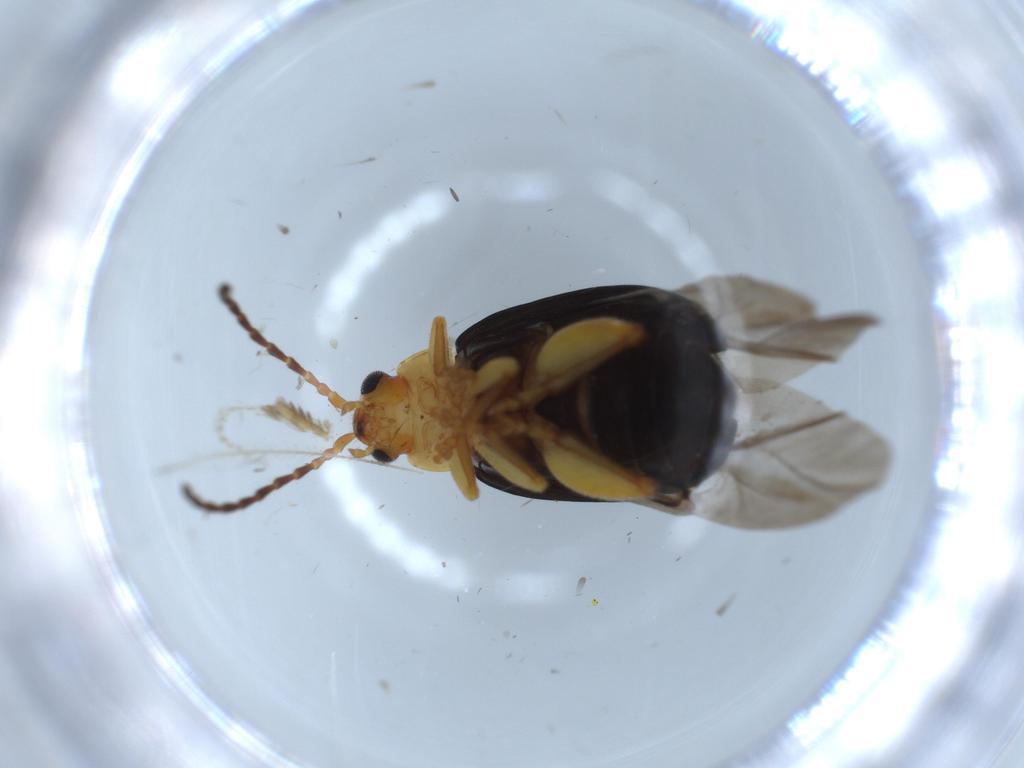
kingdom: Animalia
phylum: Arthropoda
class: Insecta
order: Coleoptera
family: Chrysomelidae
